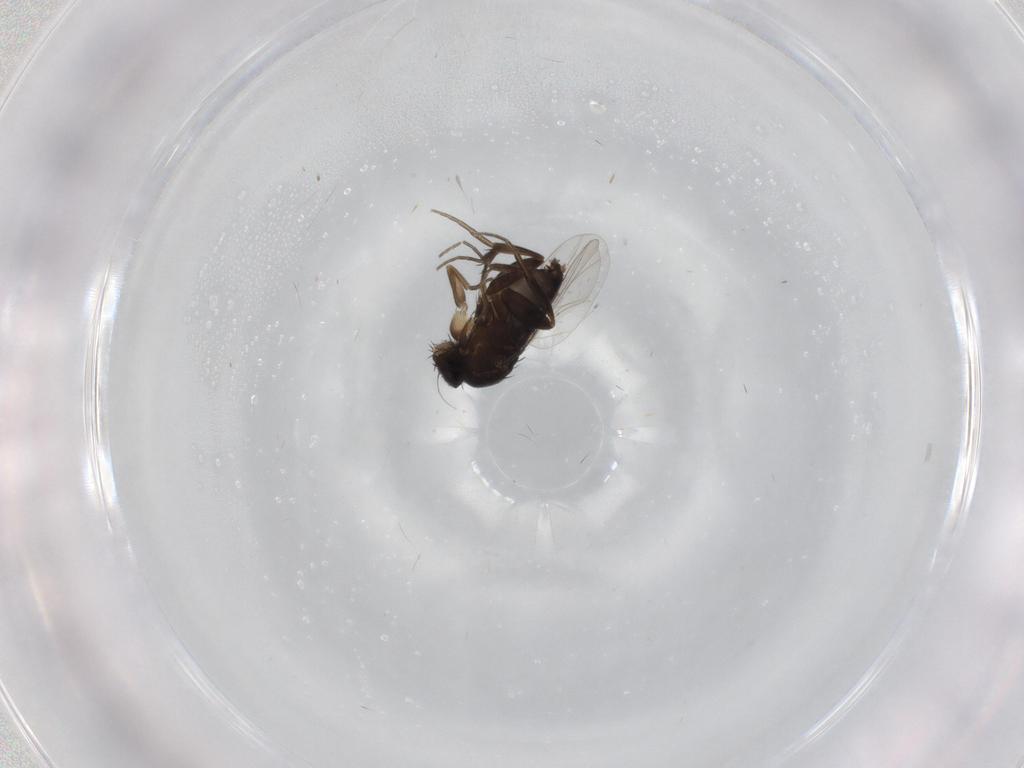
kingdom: Animalia
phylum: Arthropoda
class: Insecta
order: Diptera
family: Phoridae
